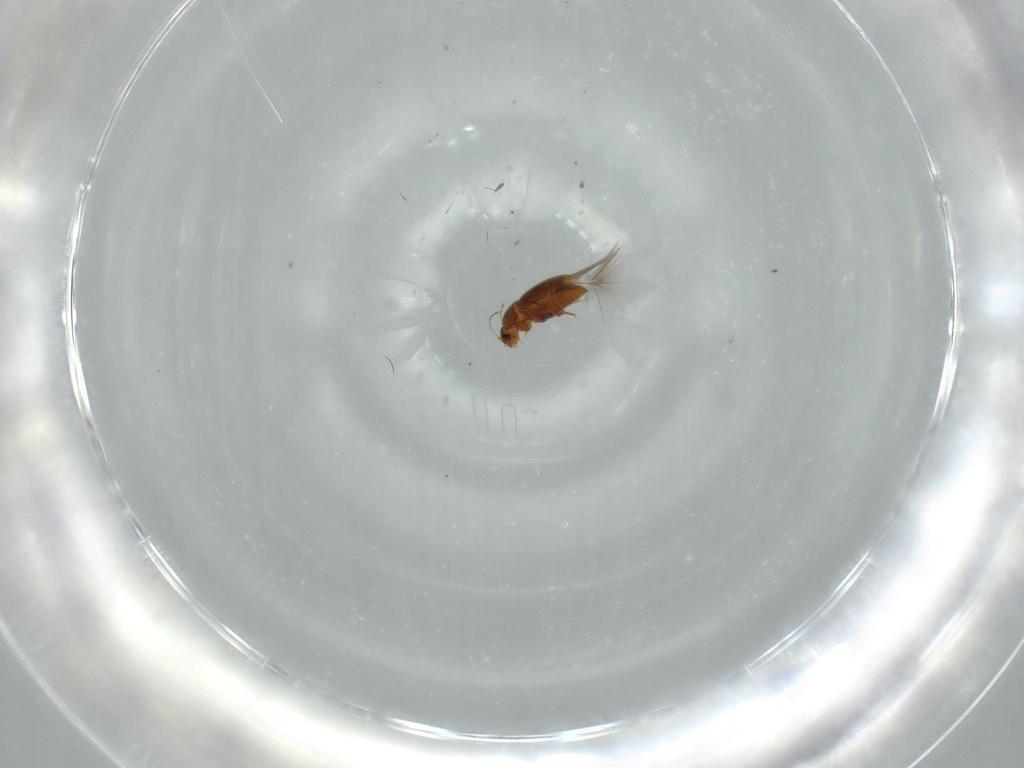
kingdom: Animalia
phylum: Arthropoda
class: Insecta
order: Coleoptera
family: Ptiliidae
